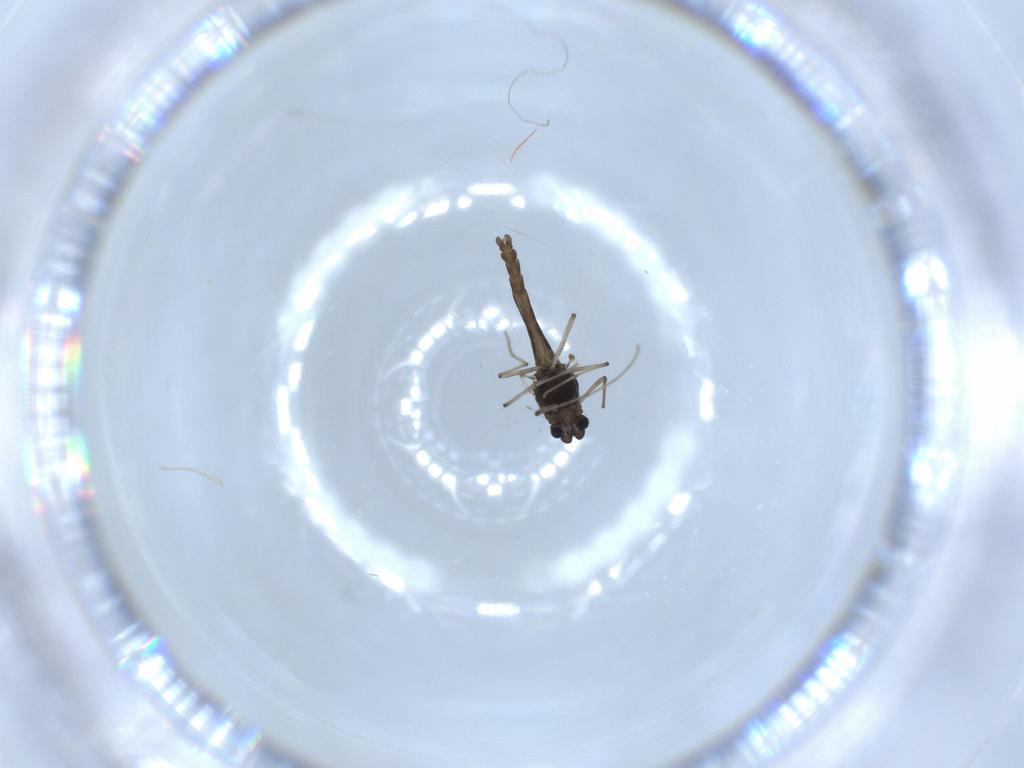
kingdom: Animalia
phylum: Arthropoda
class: Insecta
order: Diptera
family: Chironomidae
